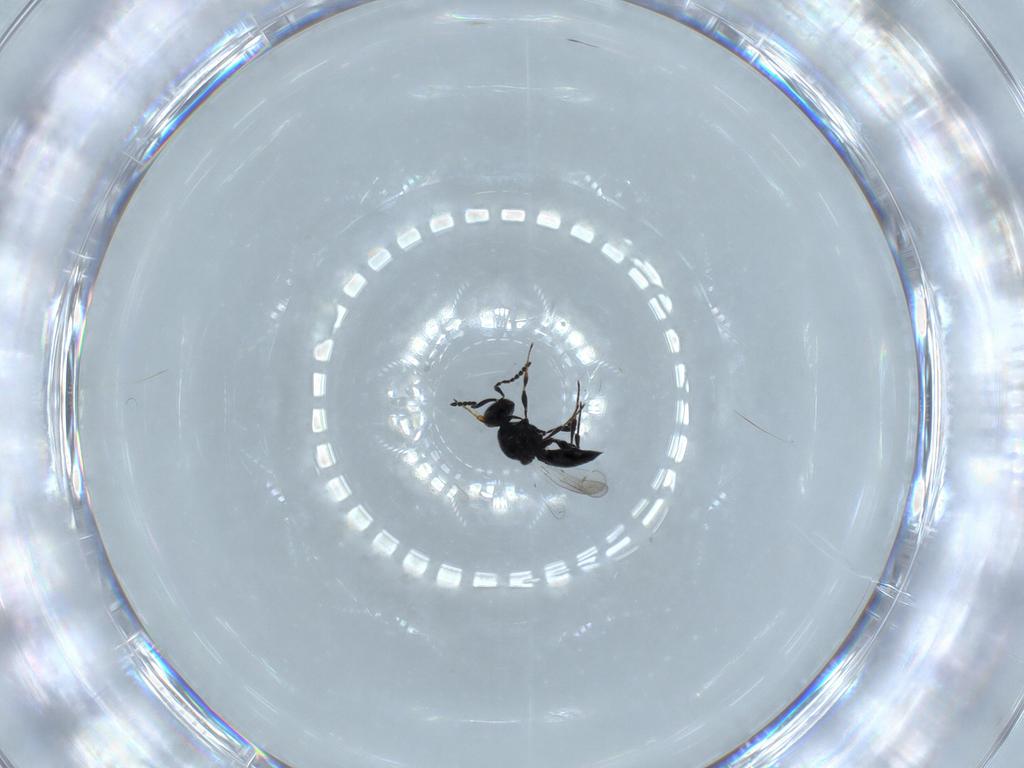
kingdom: Animalia
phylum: Arthropoda
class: Insecta
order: Hymenoptera
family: Platygastridae
